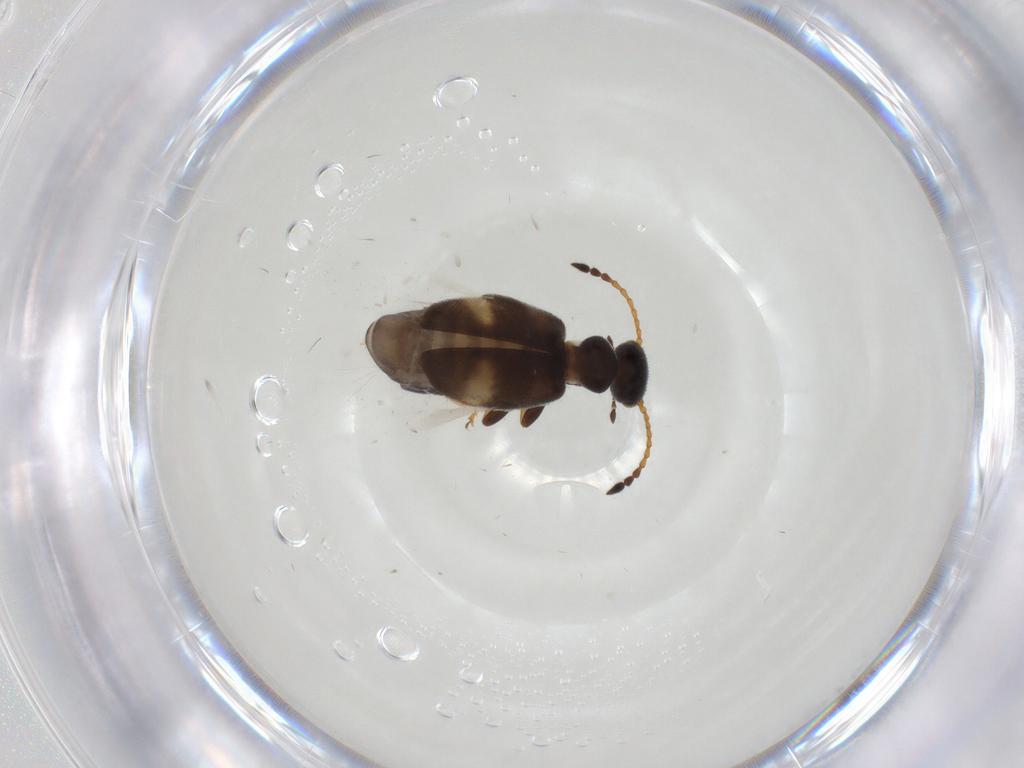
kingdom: Animalia
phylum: Arthropoda
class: Insecta
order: Coleoptera
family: Anthicidae
